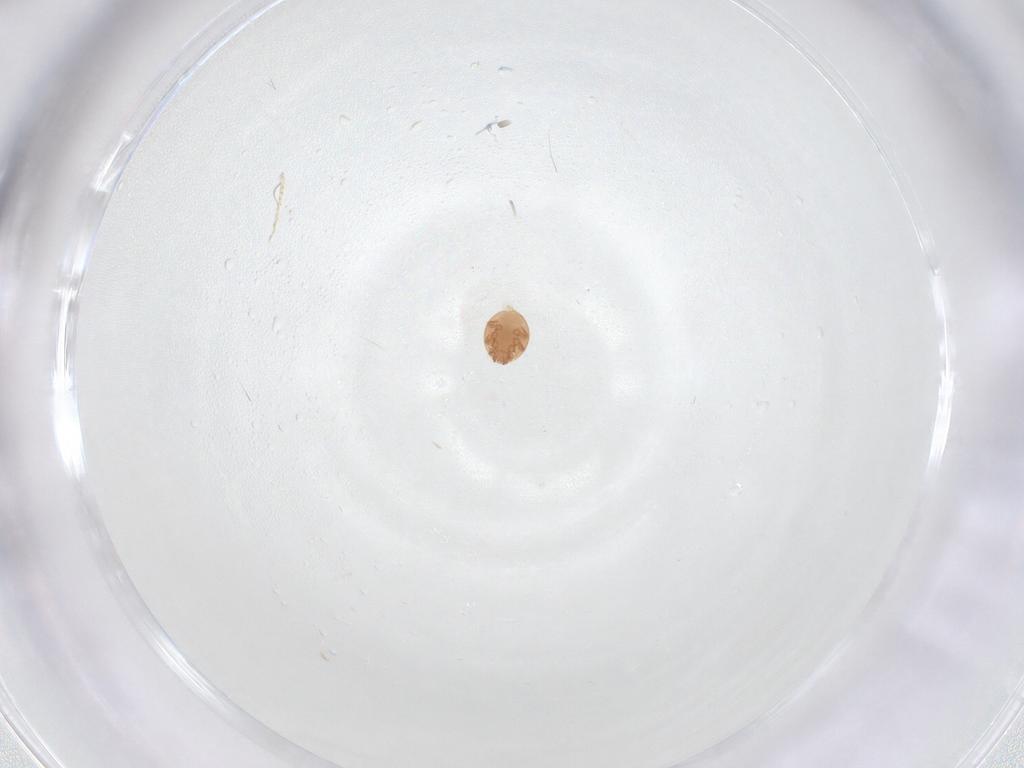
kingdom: Animalia
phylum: Arthropoda
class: Arachnida
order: Mesostigmata
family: Trematuridae
